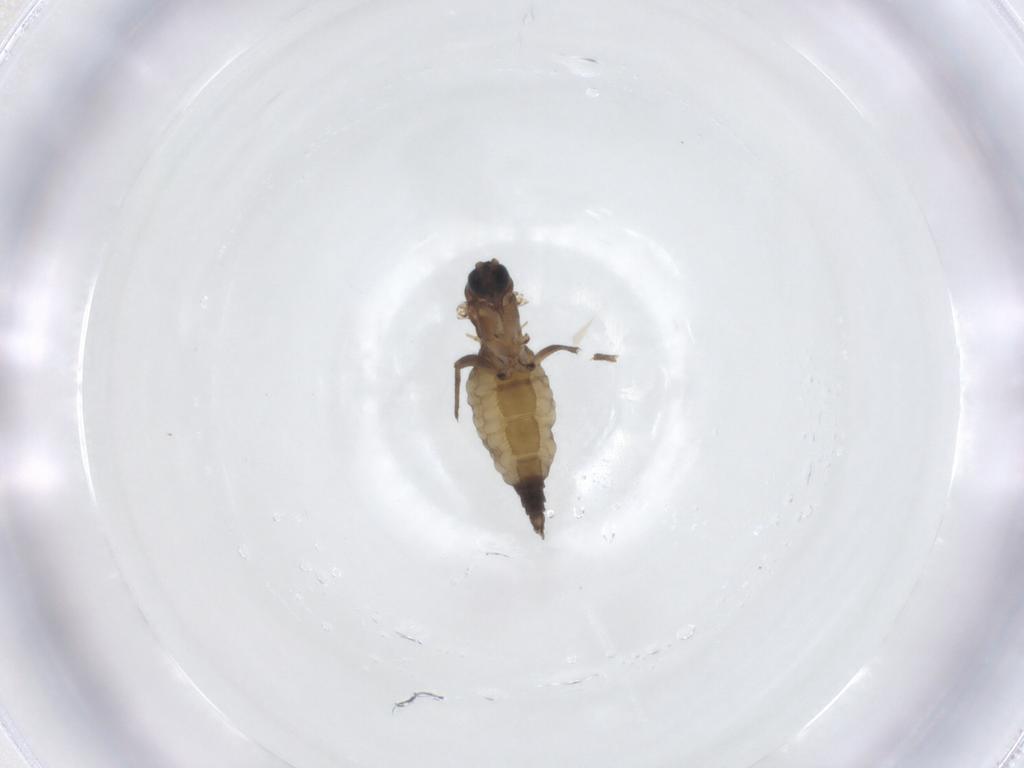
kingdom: Animalia
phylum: Arthropoda
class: Insecta
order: Diptera
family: Sciaridae
